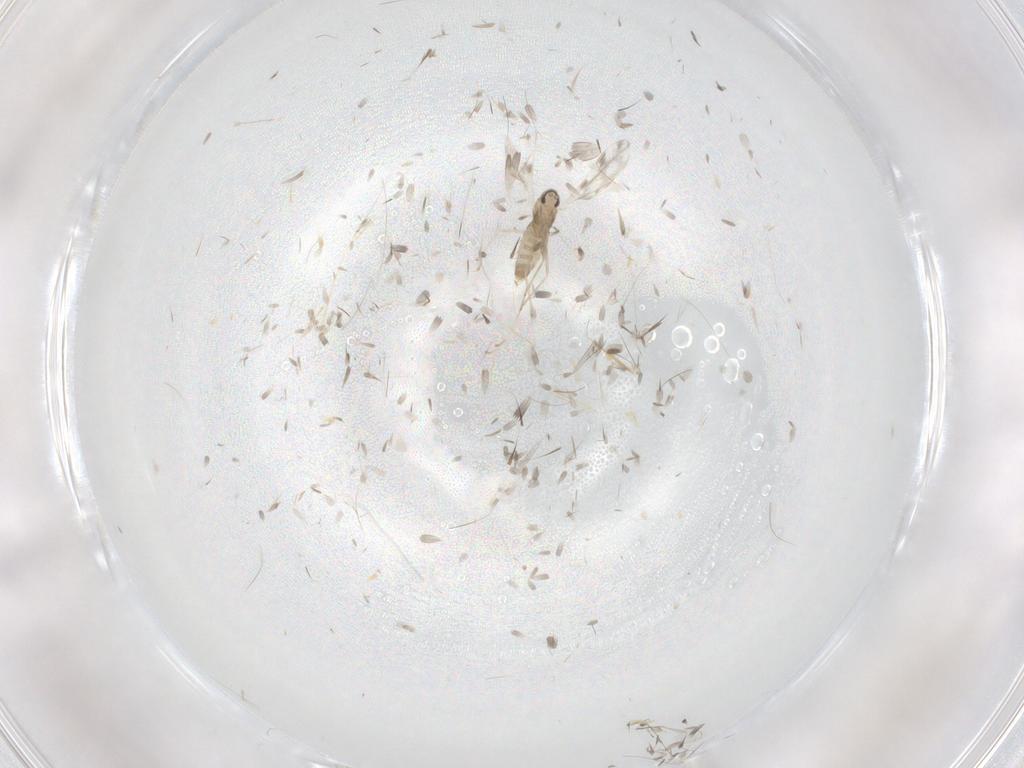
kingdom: Animalia
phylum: Arthropoda
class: Insecta
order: Diptera
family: Cecidomyiidae
